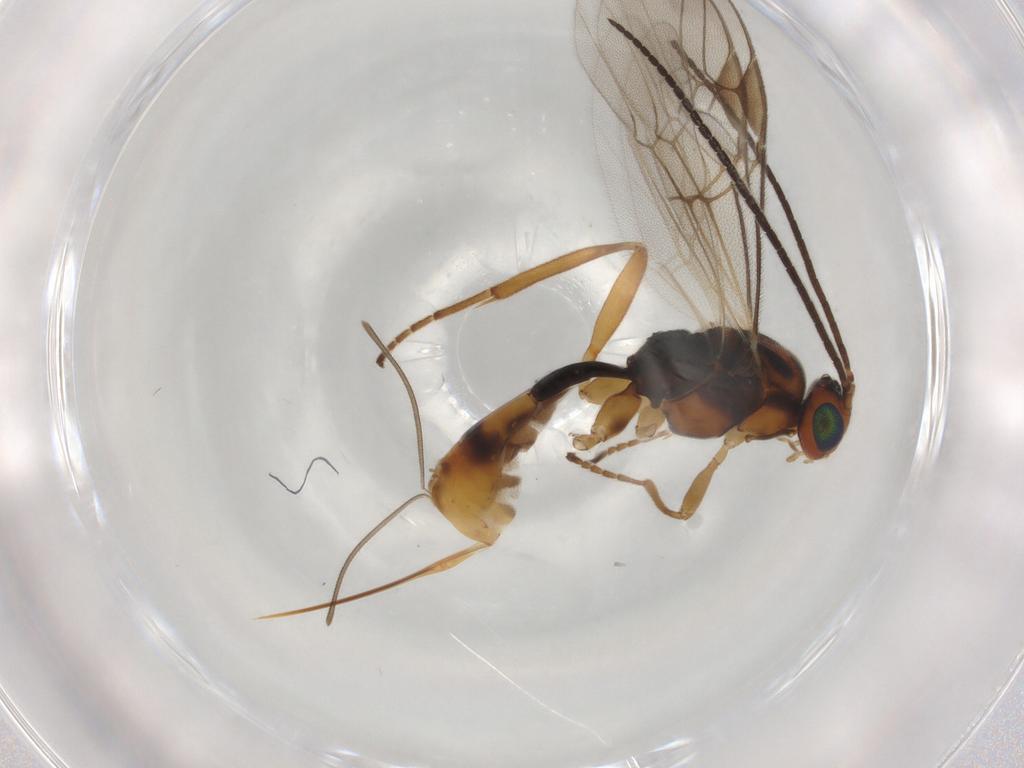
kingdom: Animalia
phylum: Arthropoda
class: Insecta
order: Hymenoptera
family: Braconidae
